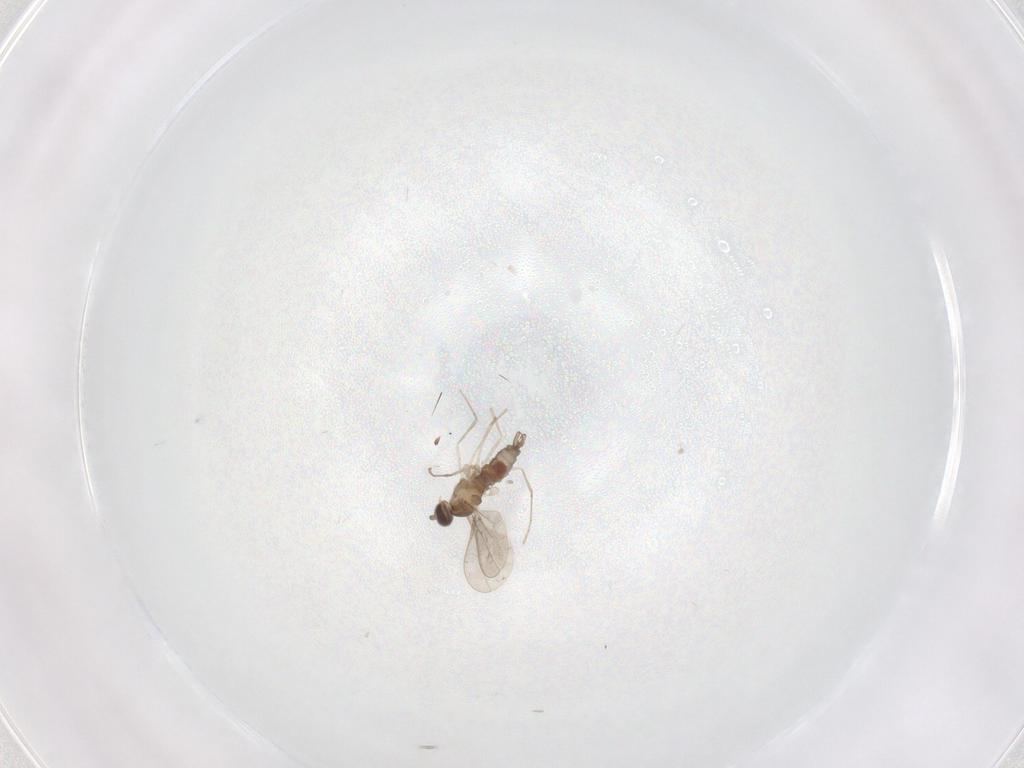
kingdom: Animalia
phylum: Arthropoda
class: Insecta
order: Diptera
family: Cecidomyiidae
